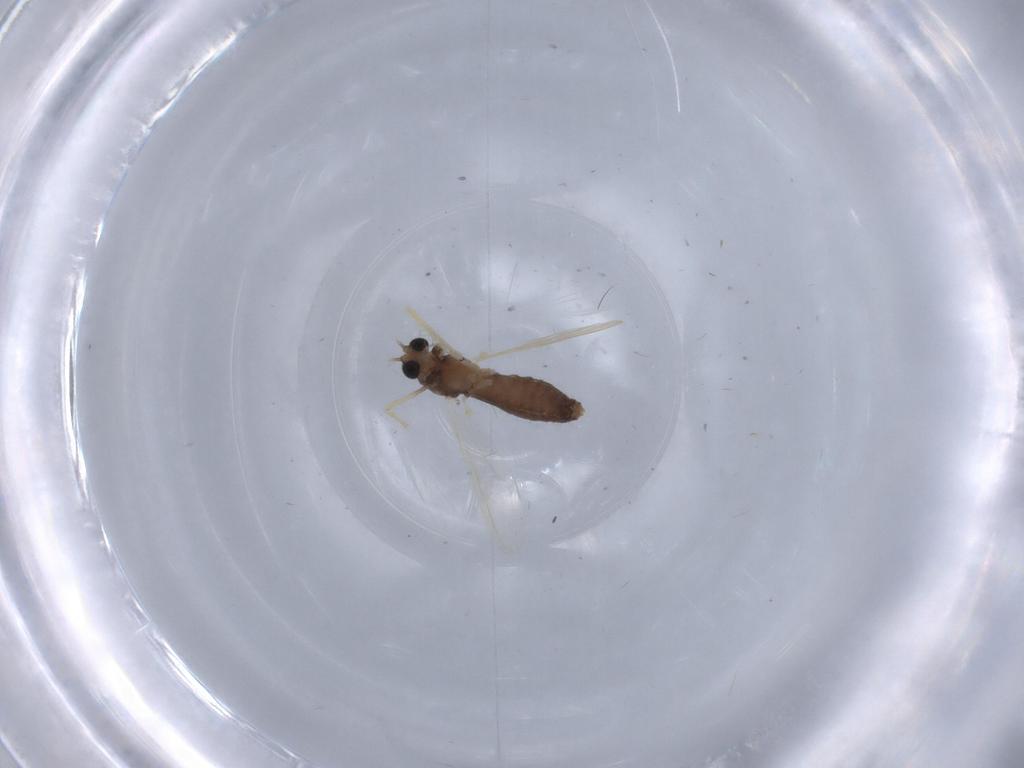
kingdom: Animalia
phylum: Arthropoda
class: Insecta
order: Diptera
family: Chironomidae
